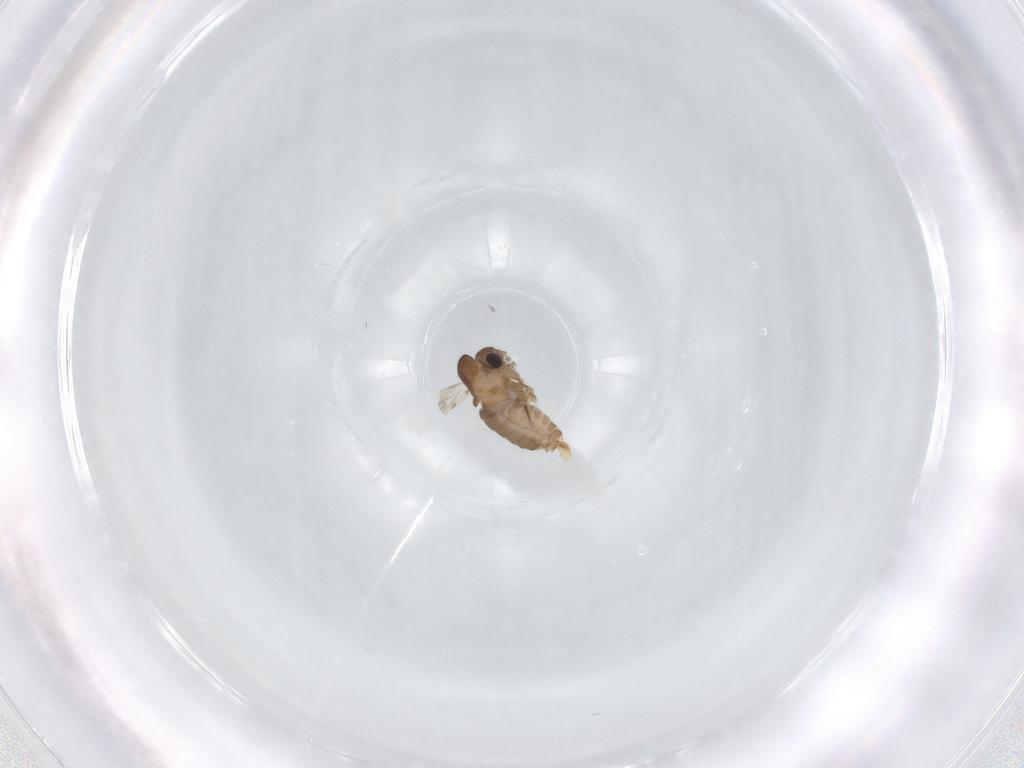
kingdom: Animalia
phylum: Arthropoda
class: Insecta
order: Diptera
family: Psychodidae
